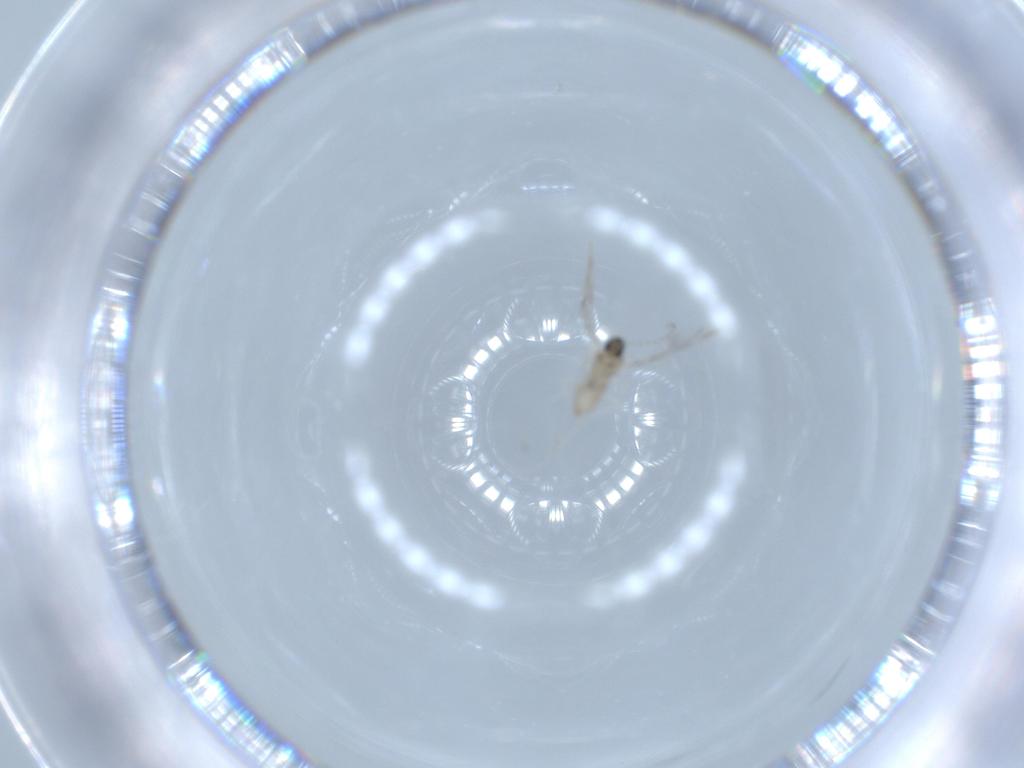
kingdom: Animalia
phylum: Arthropoda
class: Insecta
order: Diptera
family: Cecidomyiidae
